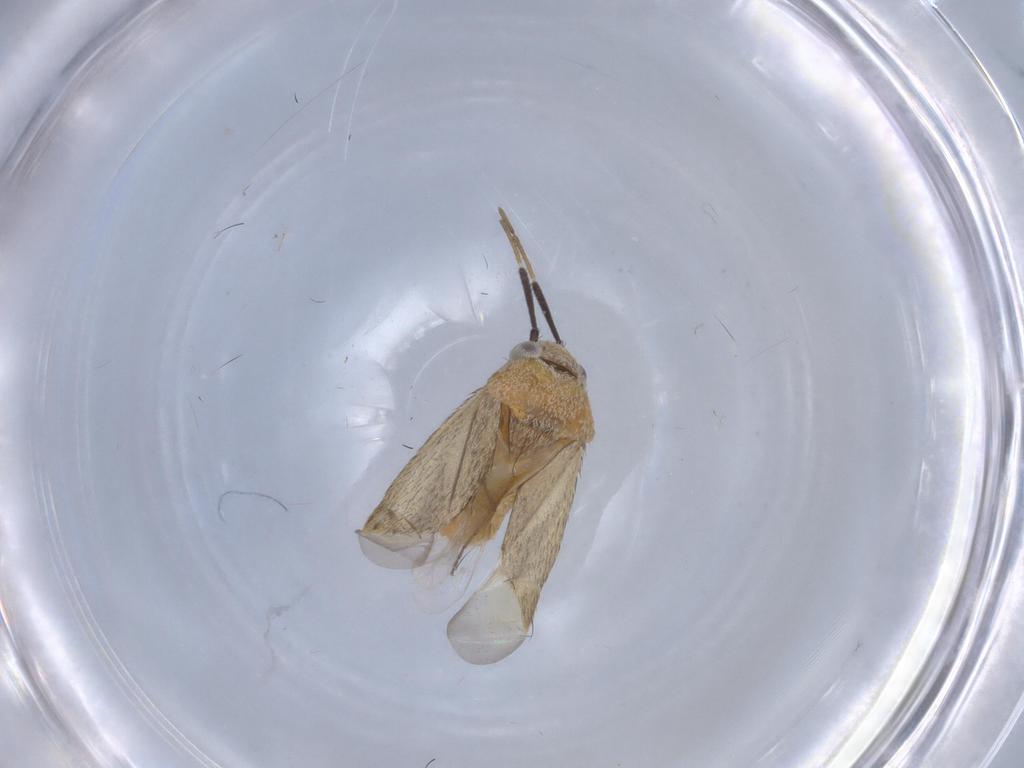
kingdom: Animalia
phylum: Arthropoda
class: Insecta
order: Hemiptera
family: Miridae
